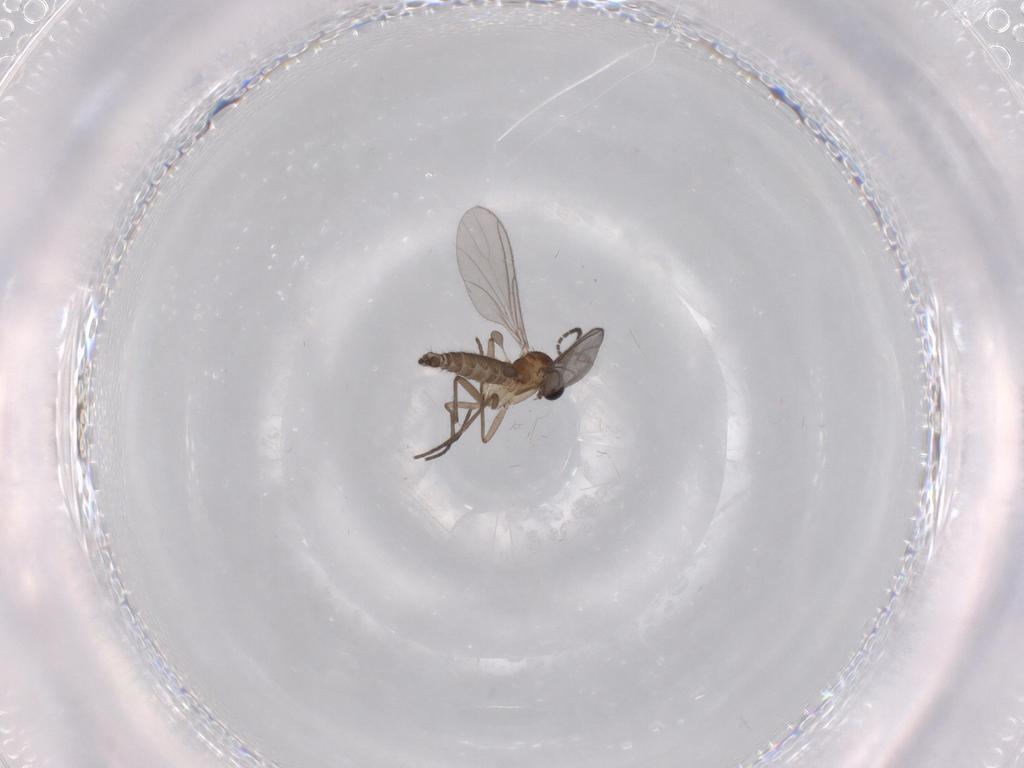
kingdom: Animalia
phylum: Arthropoda
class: Insecta
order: Diptera
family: Sciaridae
